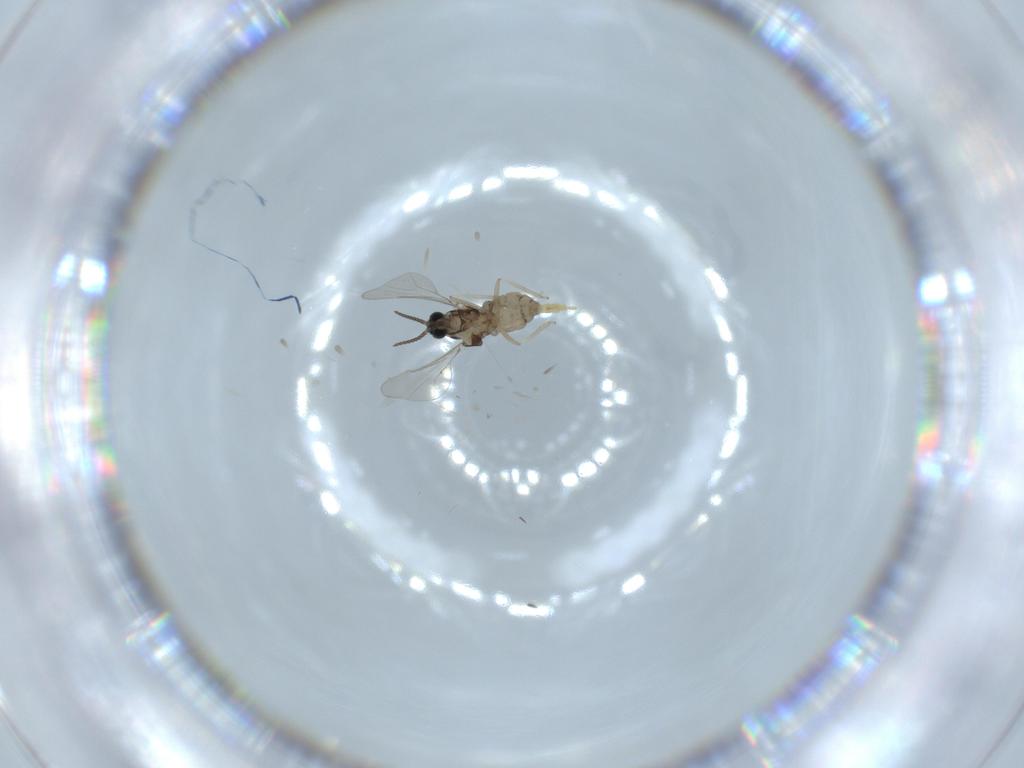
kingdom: Animalia
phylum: Arthropoda
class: Insecta
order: Diptera
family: Cecidomyiidae
